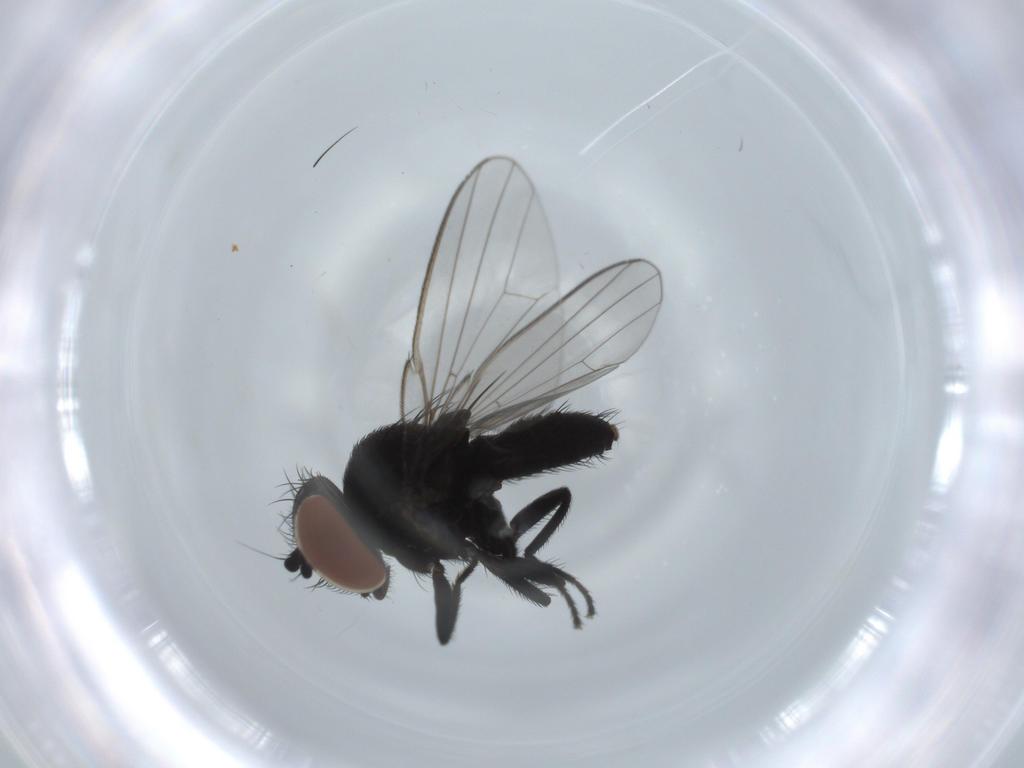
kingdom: Animalia
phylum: Arthropoda
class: Insecta
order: Diptera
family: Milichiidae
